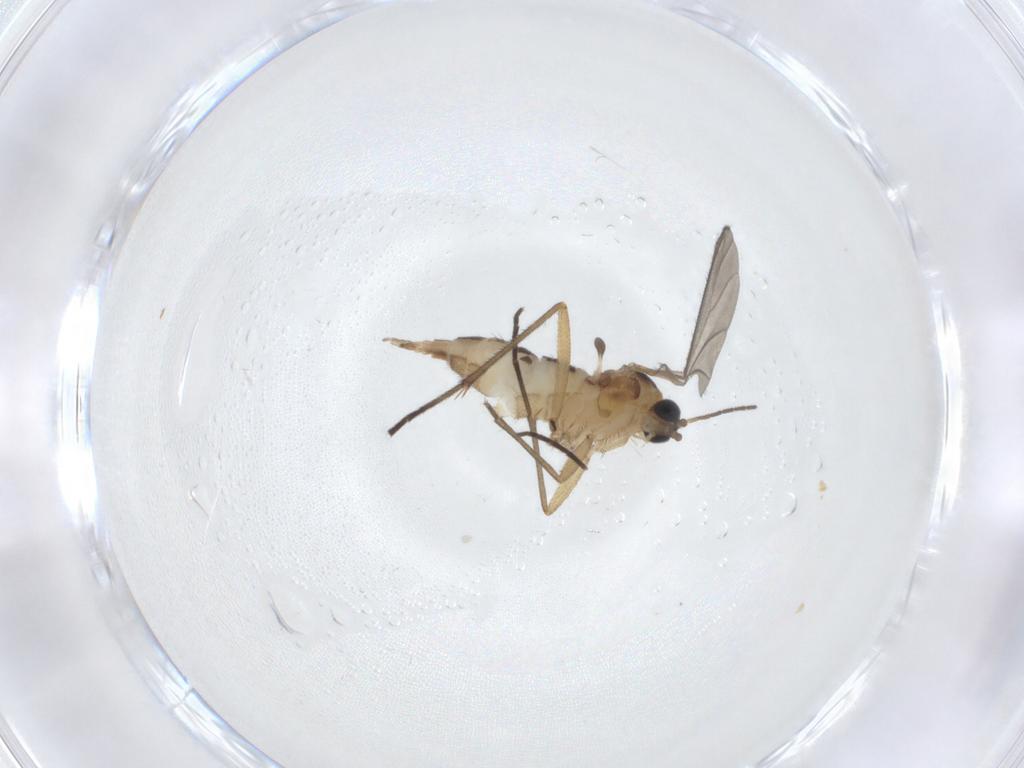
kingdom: Animalia
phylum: Arthropoda
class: Insecta
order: Diptera
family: Sciaridae
